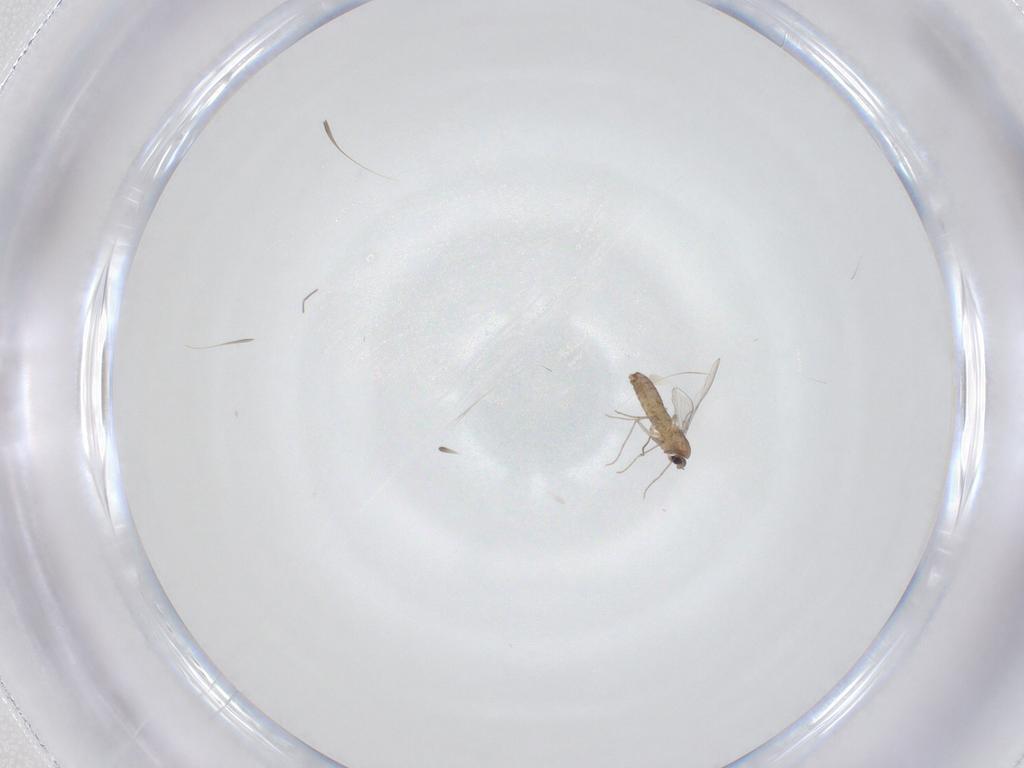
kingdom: Animalia
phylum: Arthropoda
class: Insecta
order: Diptera
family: Chironomidae
